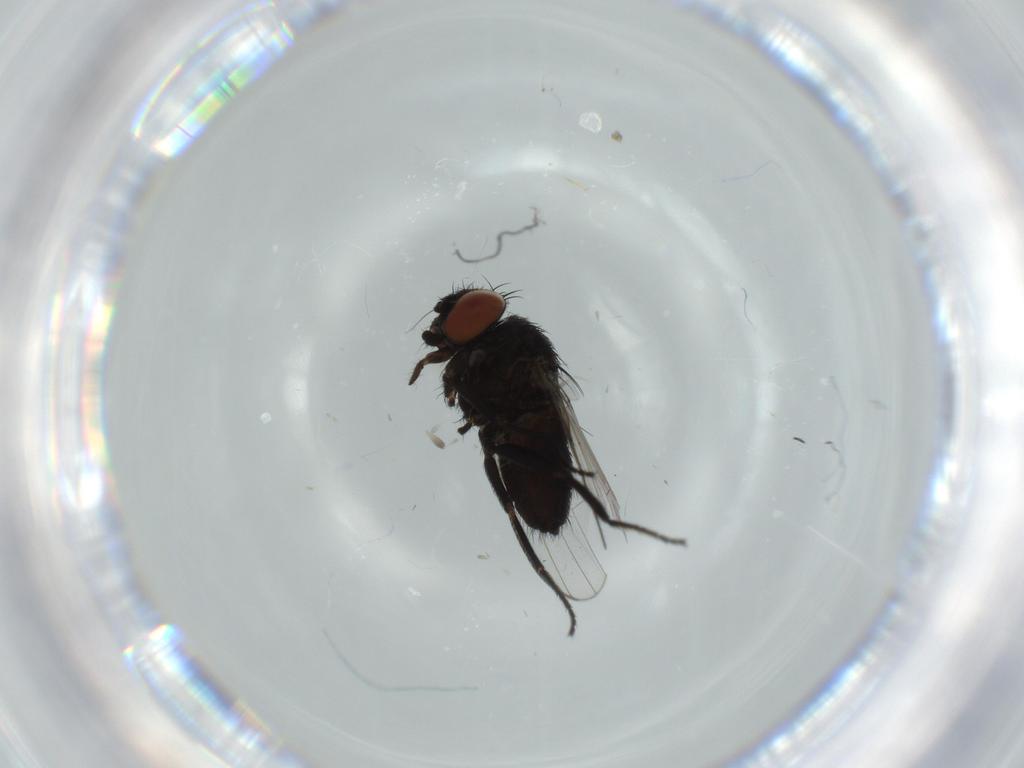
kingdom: Animalia
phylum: Arthropoda
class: Insecta
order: Diptera
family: Milichiidae
